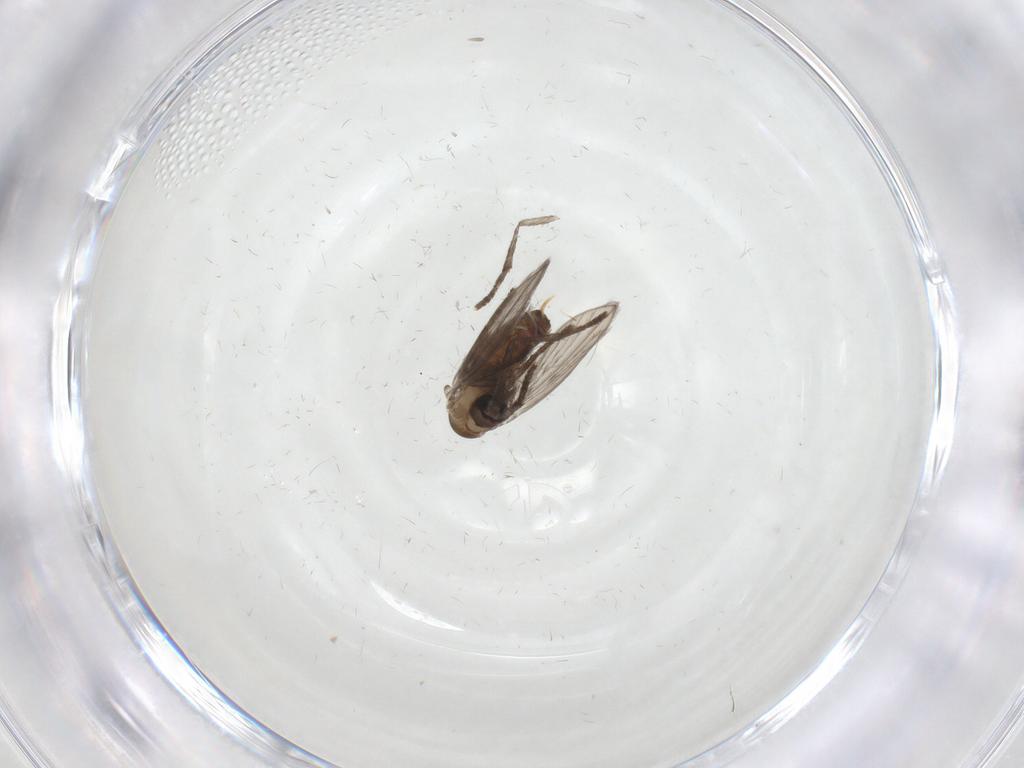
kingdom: Animalia
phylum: Arthropoda
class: Insecta
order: Diptera
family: Psychodidae
